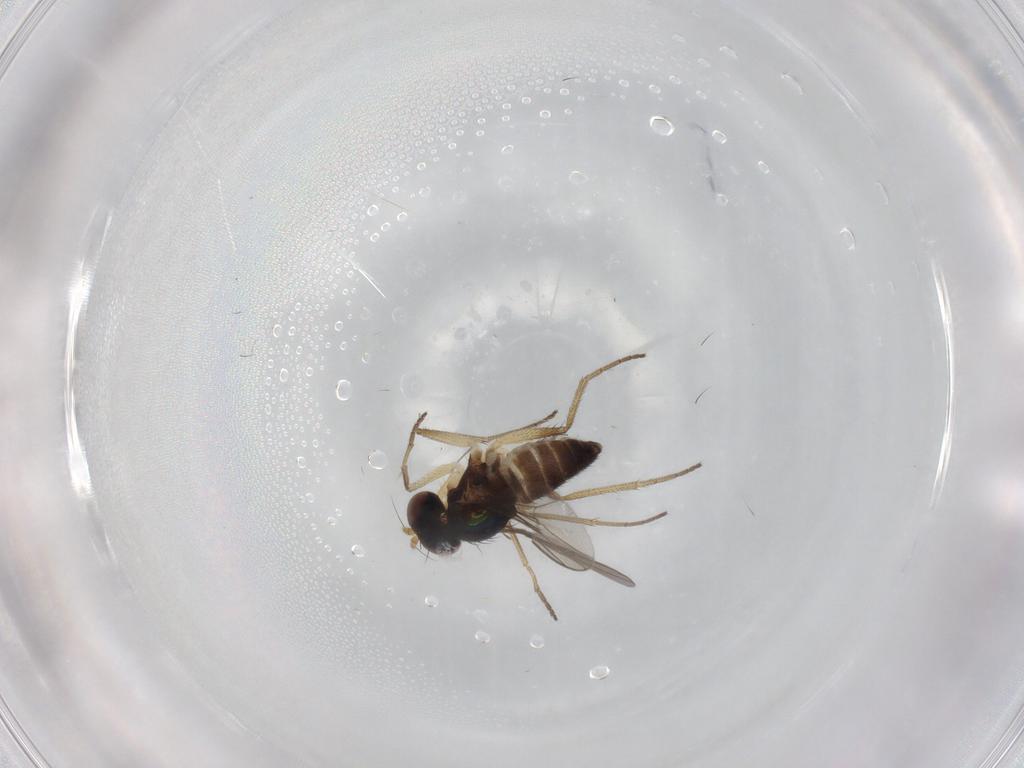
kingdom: Animalia
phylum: Arthropoda
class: Insecta
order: Diptera
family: Dolichopodidae
